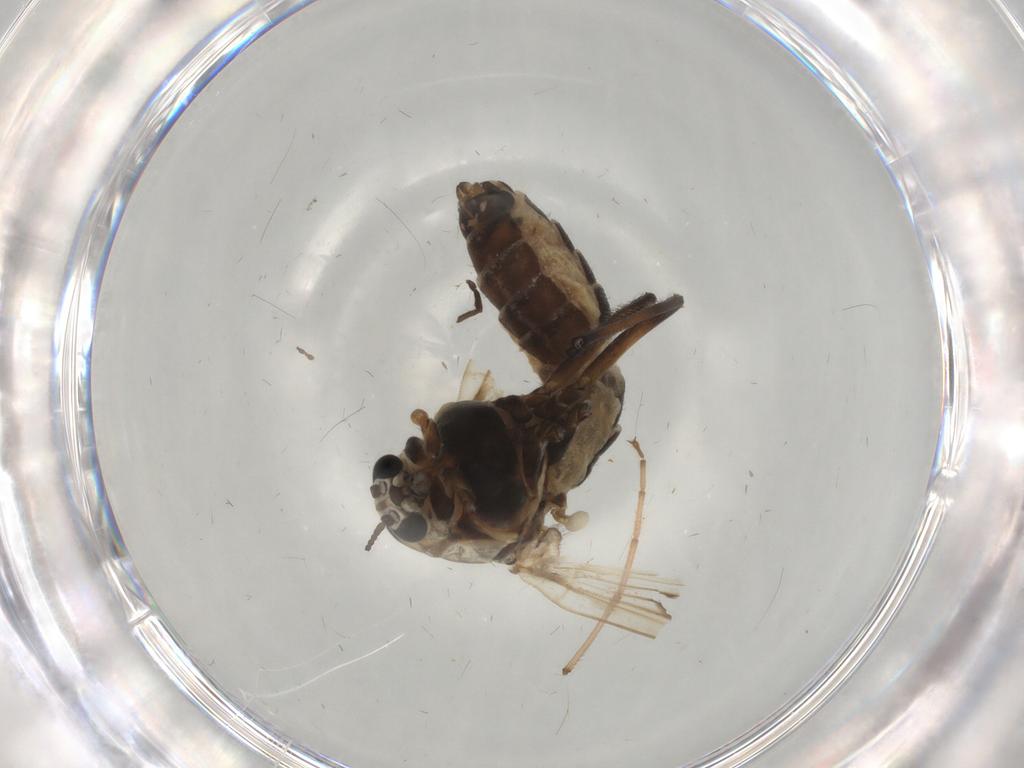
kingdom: Animalia
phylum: Arthropoda
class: Insecta
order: Diptera
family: Chironomidae
